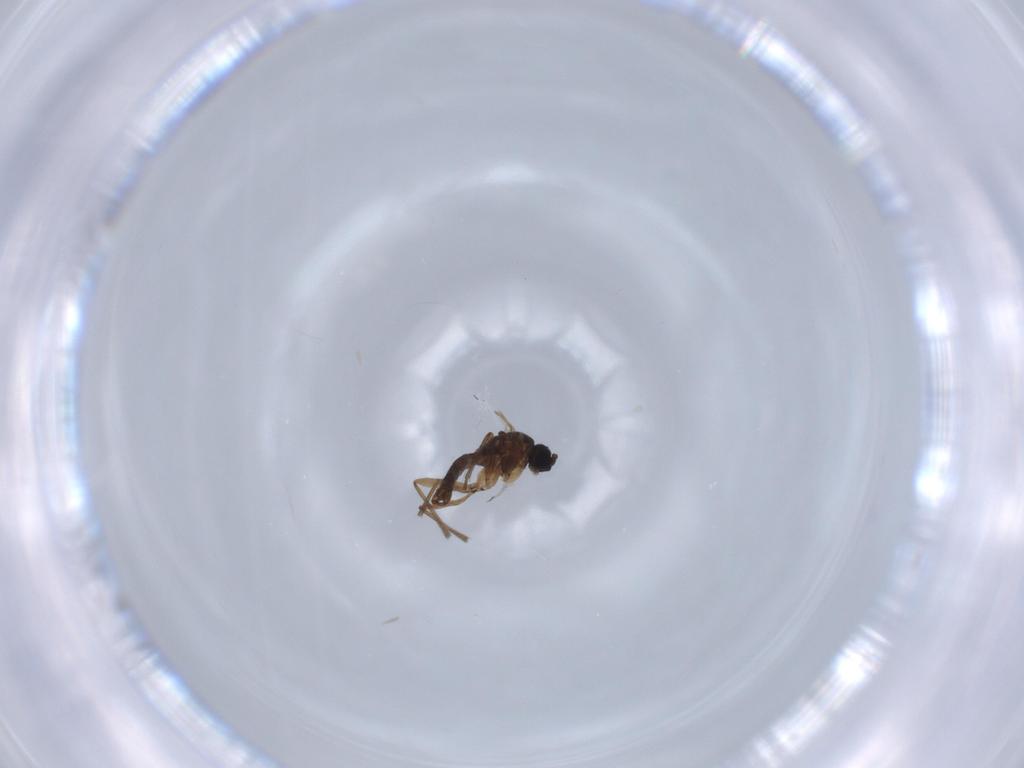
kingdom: Animalia
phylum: Arthropoda
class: Insecta
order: Diptera
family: Sciaridae
